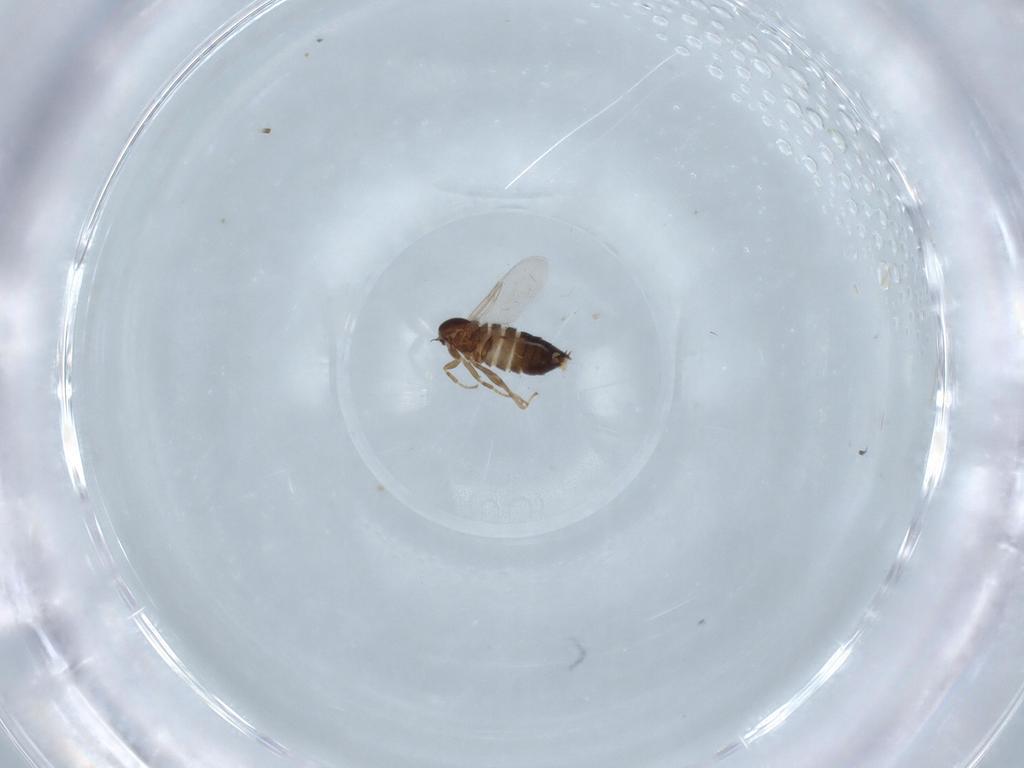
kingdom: Animalia
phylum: Arthropoda
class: Insecta
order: Diptera
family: Scatopsidae
